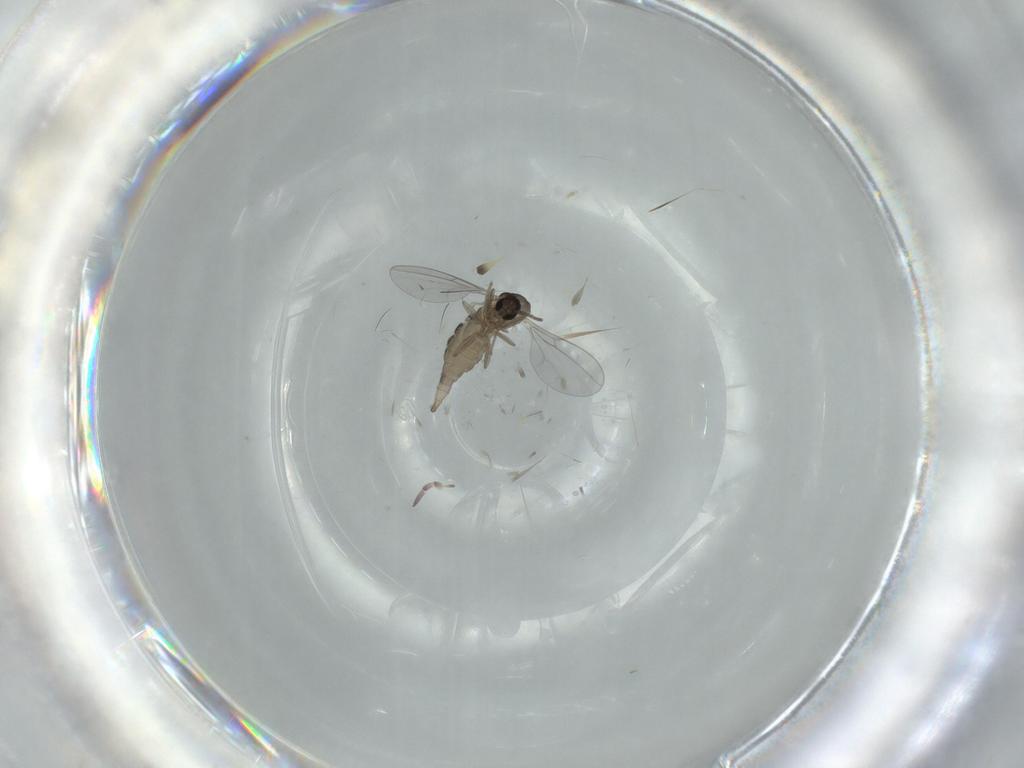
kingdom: Animalia
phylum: Arthropoda
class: Insecta
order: Diptera
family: Cecidomyiidae
